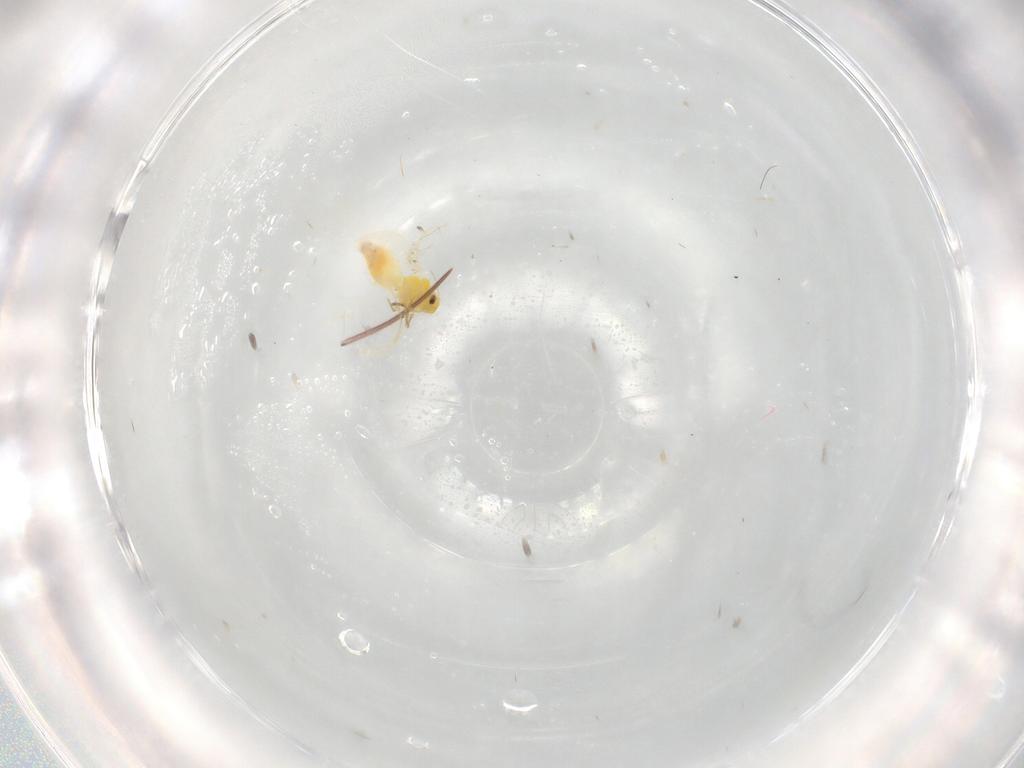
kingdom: Animalia
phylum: Arthropoda
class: Insecta
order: Hemiptera
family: Aleyrodidae
